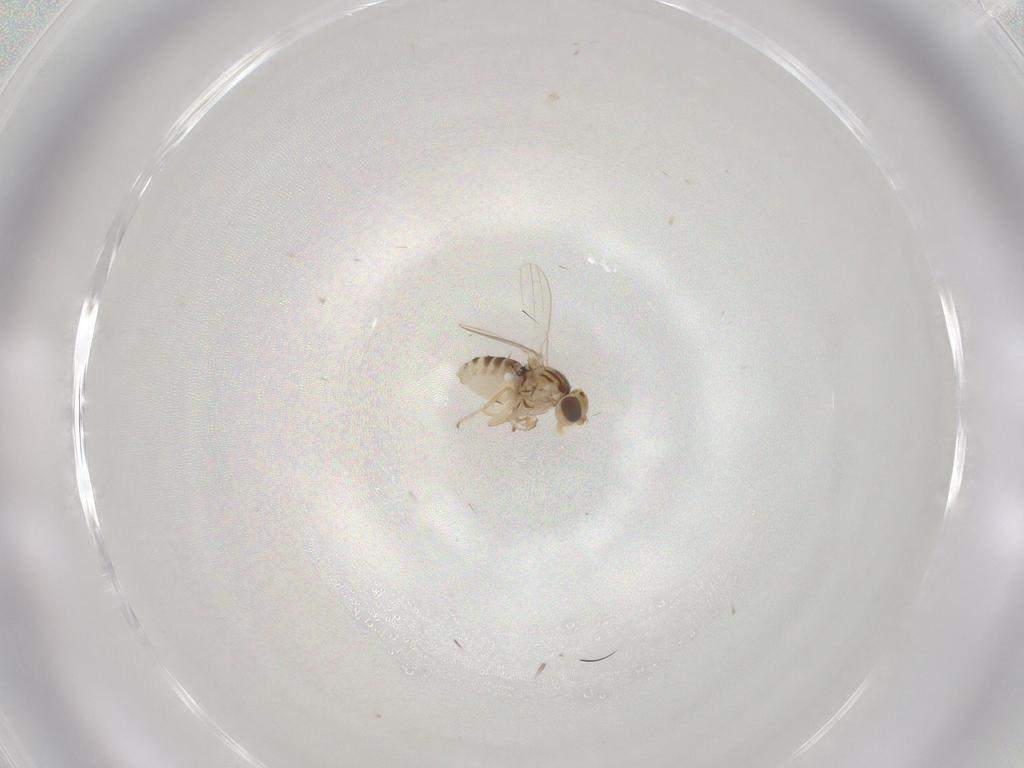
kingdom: Animalia
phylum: Arthropoda
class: Insecta
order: Diptera
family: Chyromyidae
